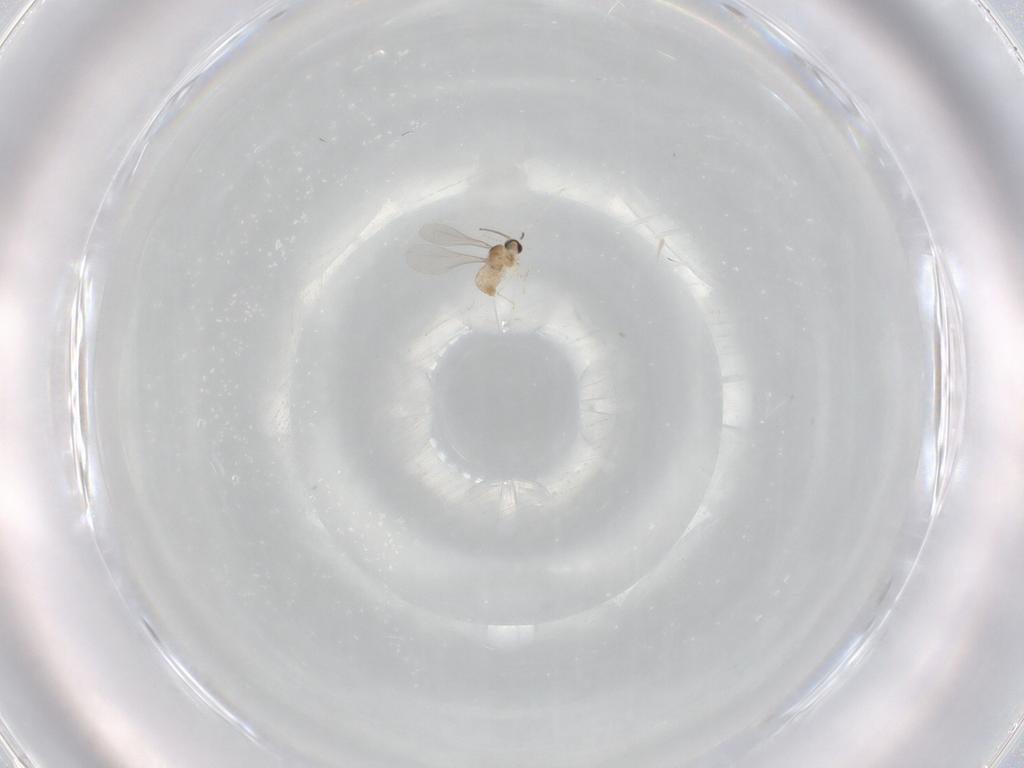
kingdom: Animalia
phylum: Arthropoda
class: Insecta
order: Diptera
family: Cecidomyiidae
